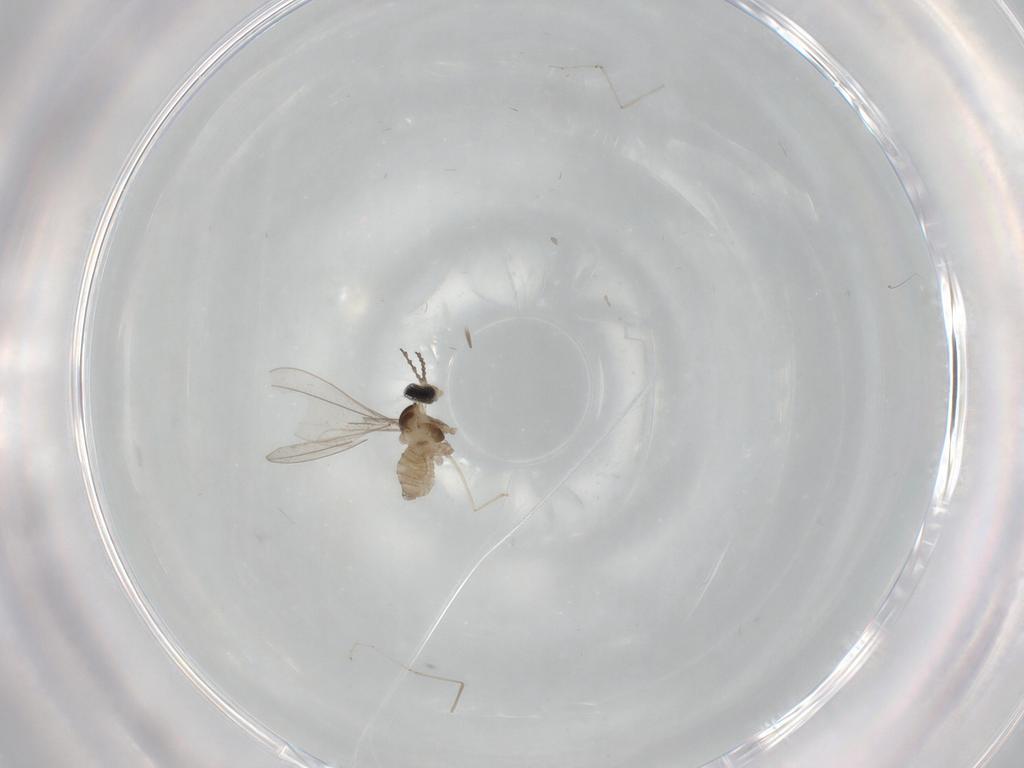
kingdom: Animalia
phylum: Arthropoda
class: Insecta
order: Diptera
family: Cecidomyiidae
